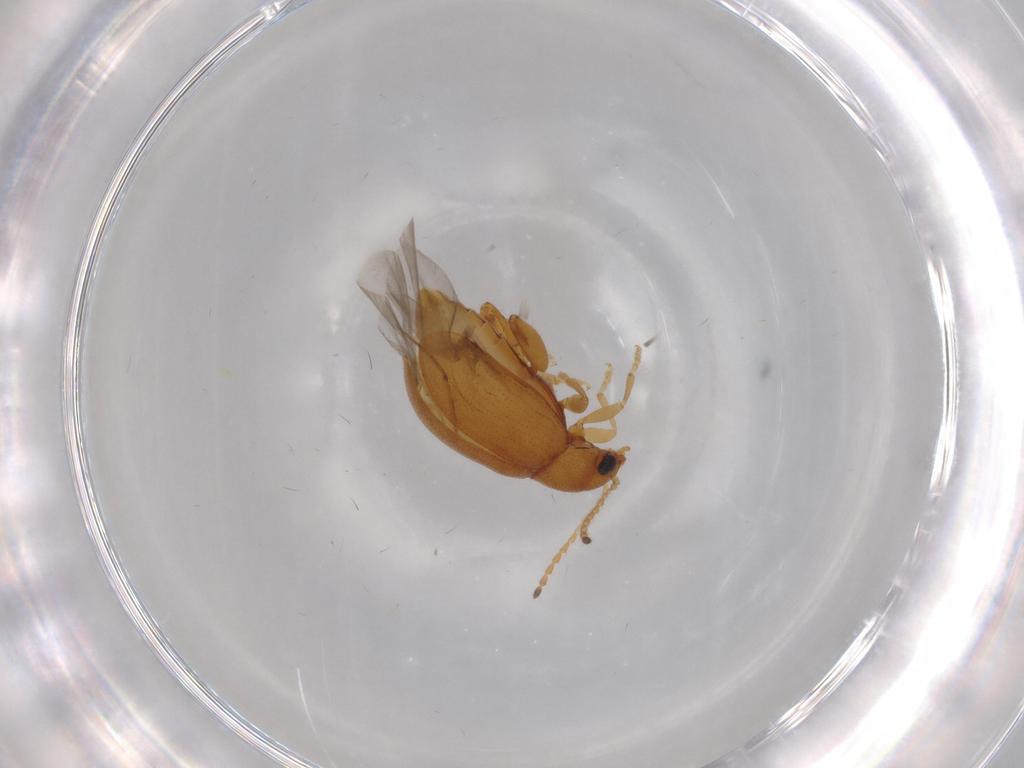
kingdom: Animalia
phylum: Arthropoda
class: Insecta
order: Coleoptera
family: Chrysomelidae
